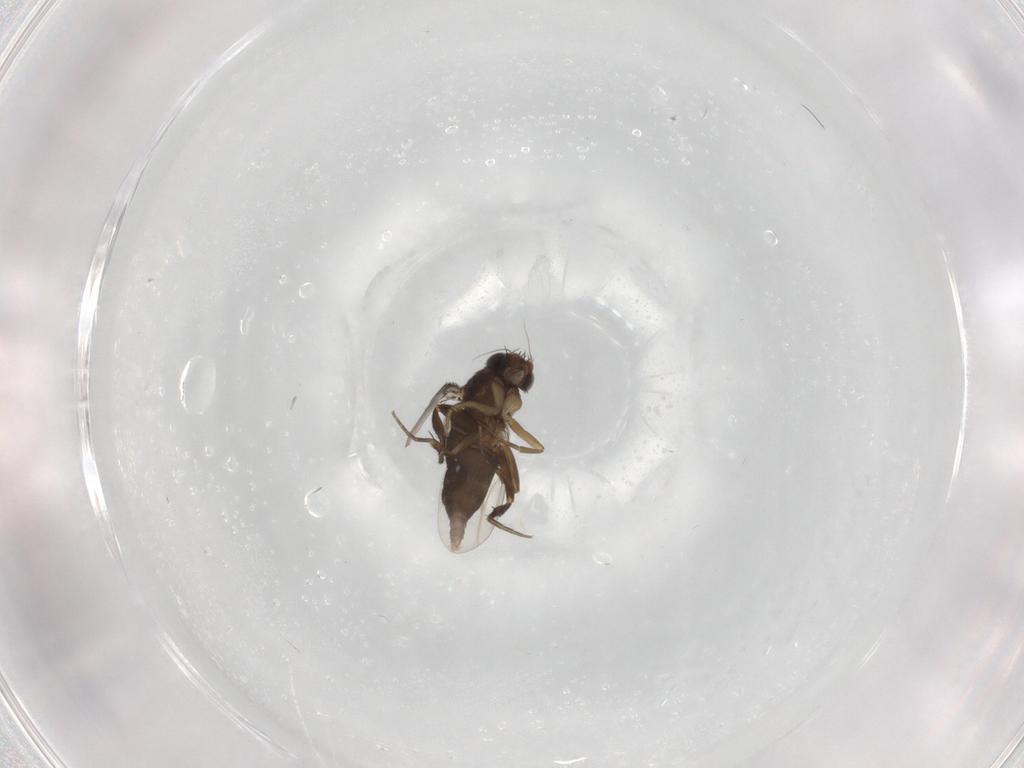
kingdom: Animalia
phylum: Arthropoda
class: Insecta
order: Diptera
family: Phoridae
